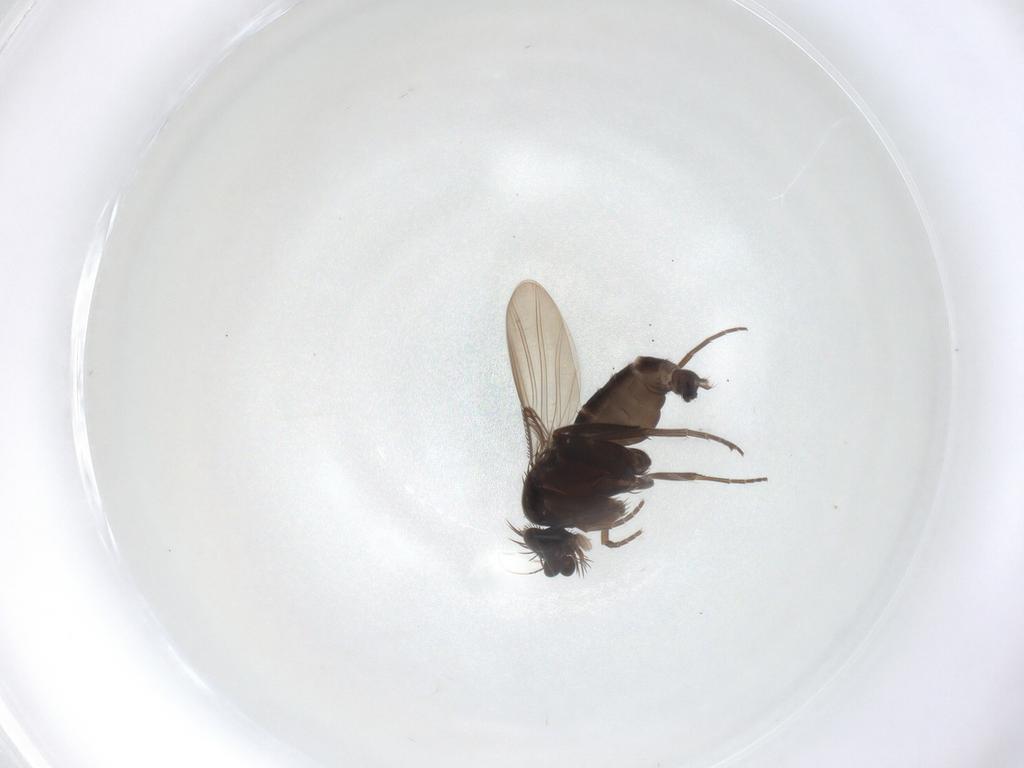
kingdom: Animalia
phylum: Arthropoda
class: Insecta
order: Diptera
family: Phoridae
